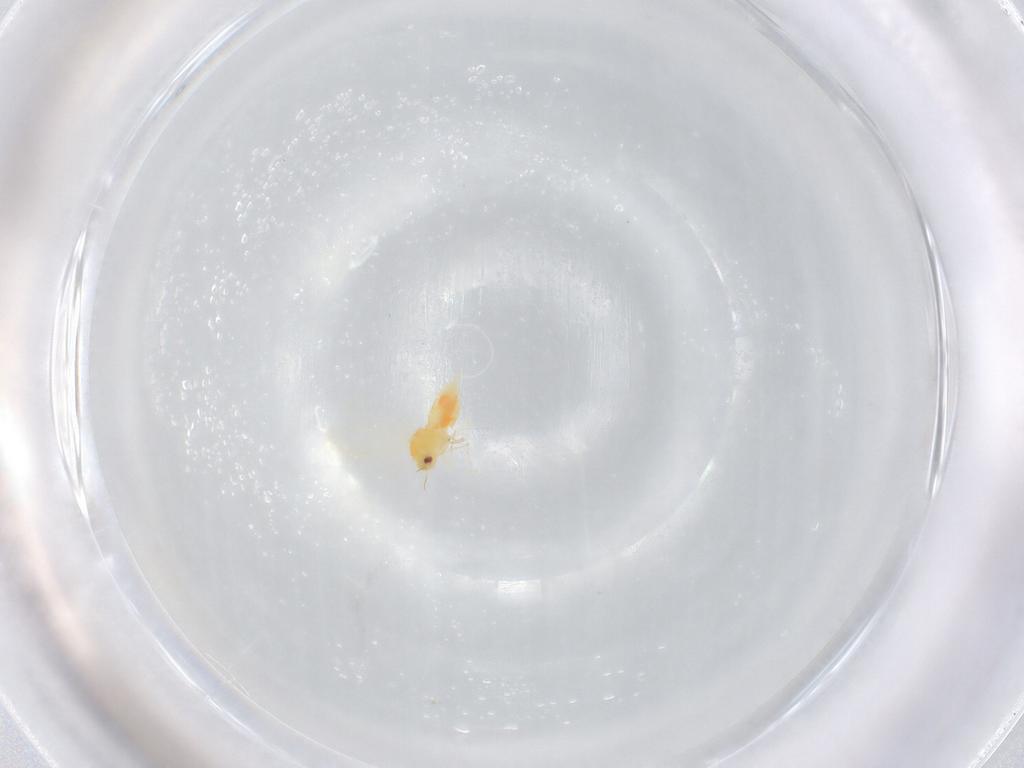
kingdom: Animalia
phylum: Arthropoda
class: Insecta
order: Hemiptera
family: Aleyrodidae
